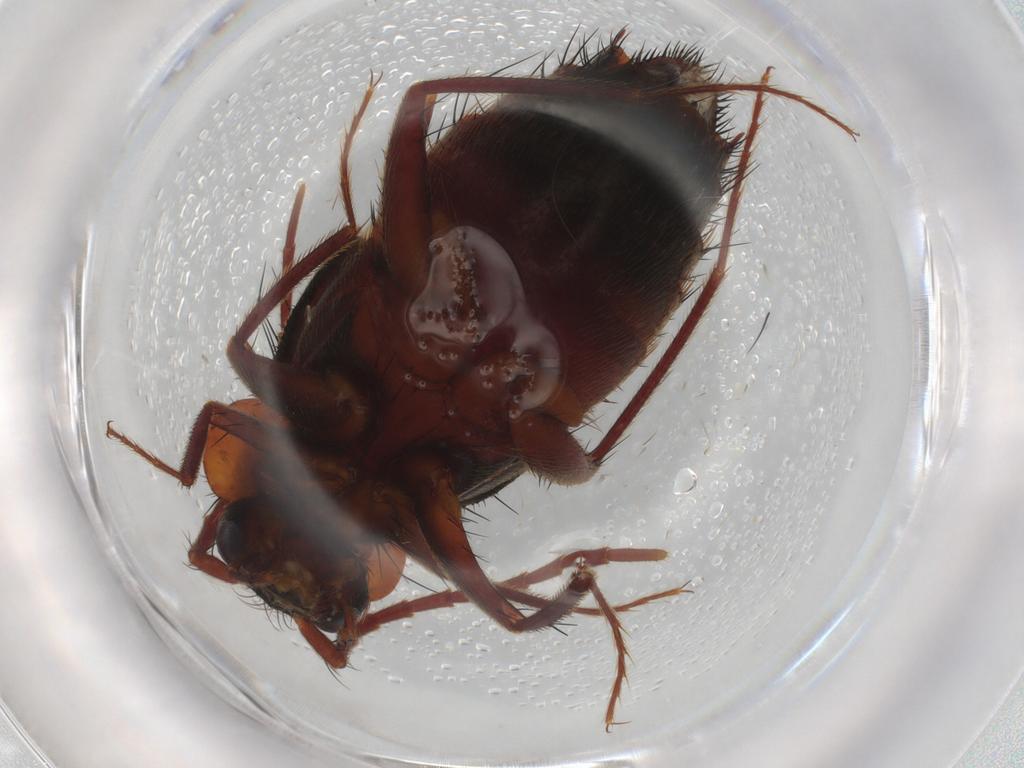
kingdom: Animalia
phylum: Arthropoda
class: Insecta
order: Coleoptera
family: Staphylinidae
